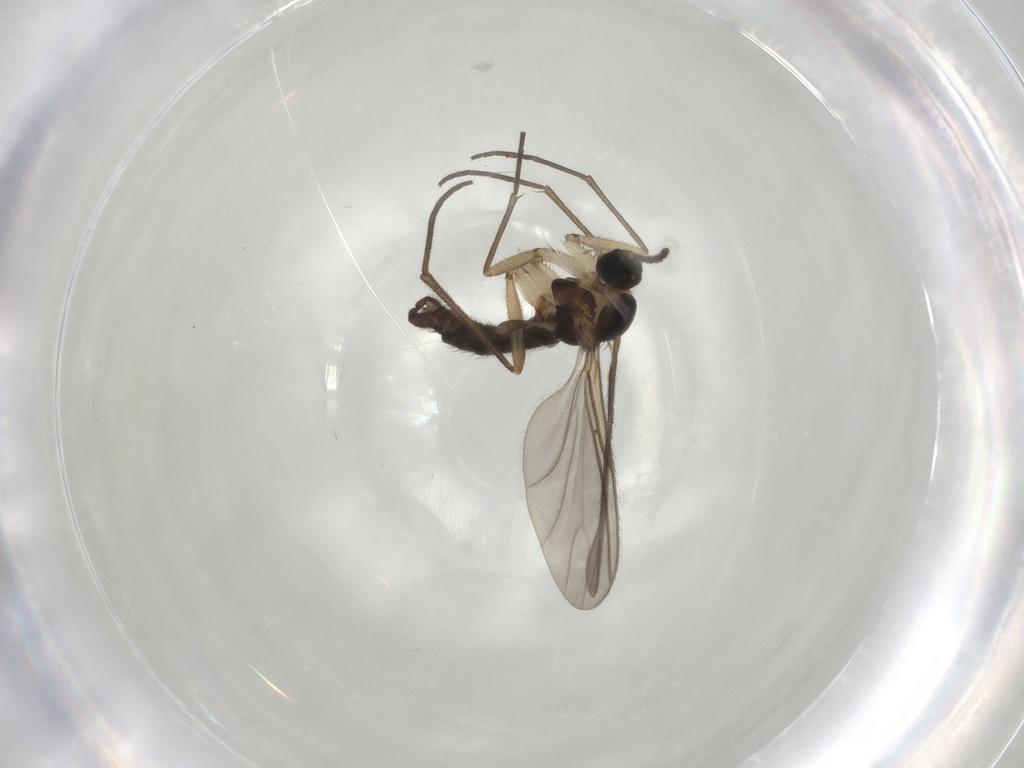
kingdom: Animalia
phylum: Arthropoda
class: Insecta
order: Diptera
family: Sciaridae
